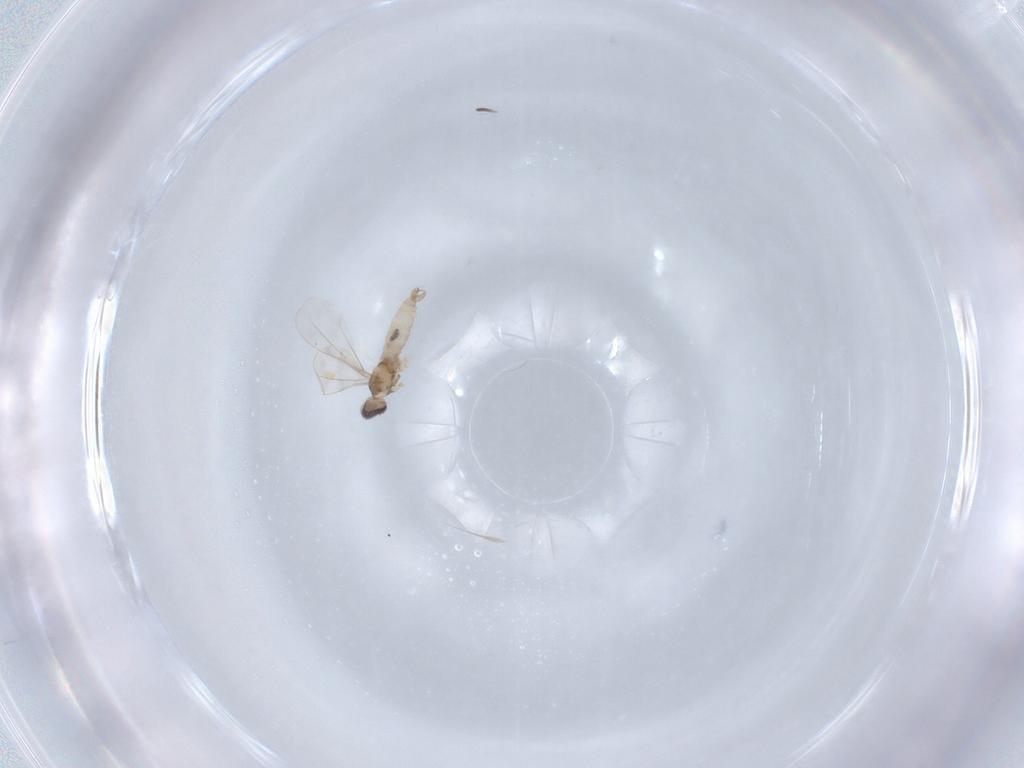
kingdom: Animalia
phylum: Arthropoda
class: Insecta
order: Diptera
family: Cecidomyiidae
